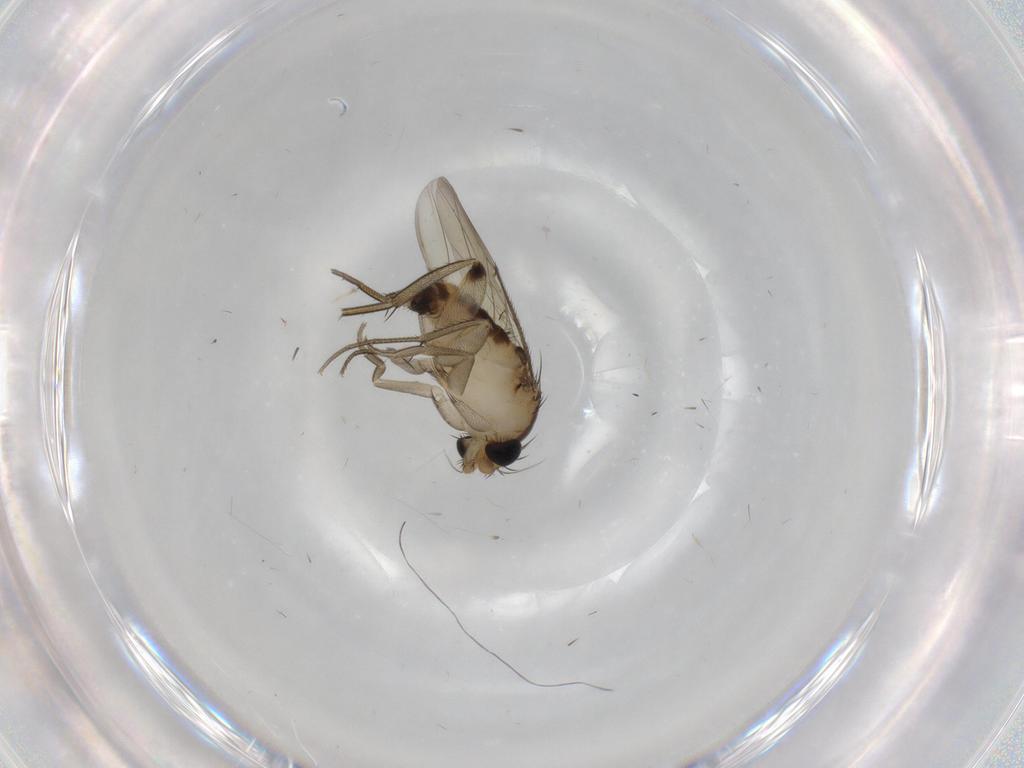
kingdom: Animalia
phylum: Arthropoda
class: Insecta
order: Diptera
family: Phoridae
